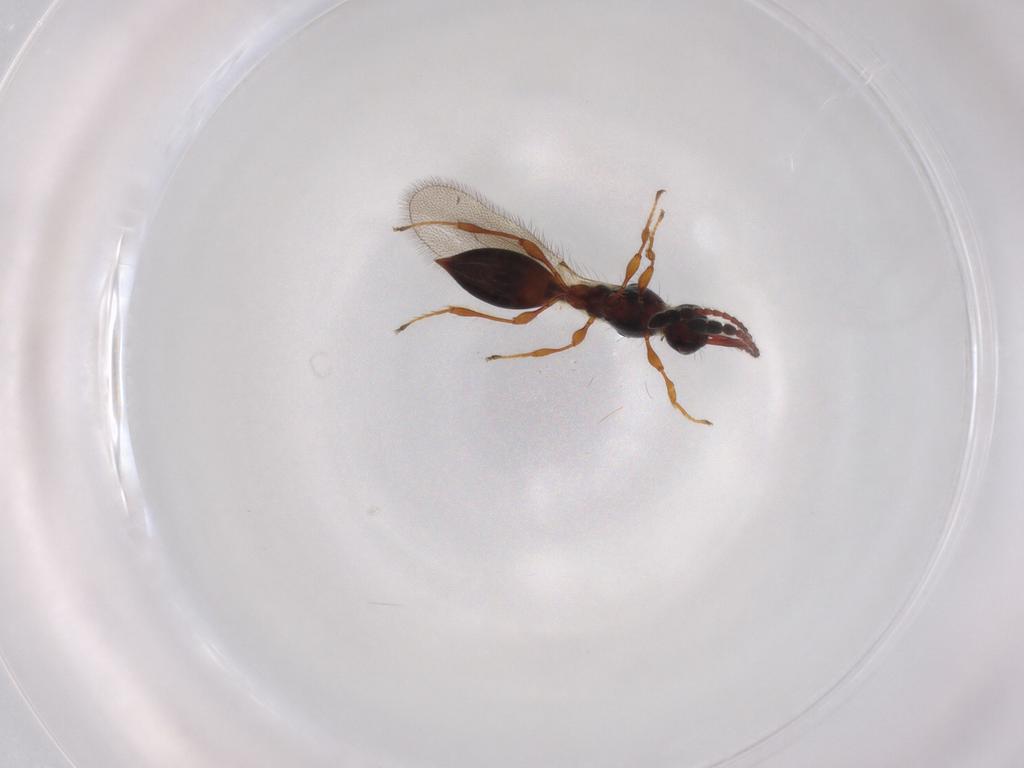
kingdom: Animalia
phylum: Arthropoda
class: Insecta
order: Hymenoptera
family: Diapriidae
